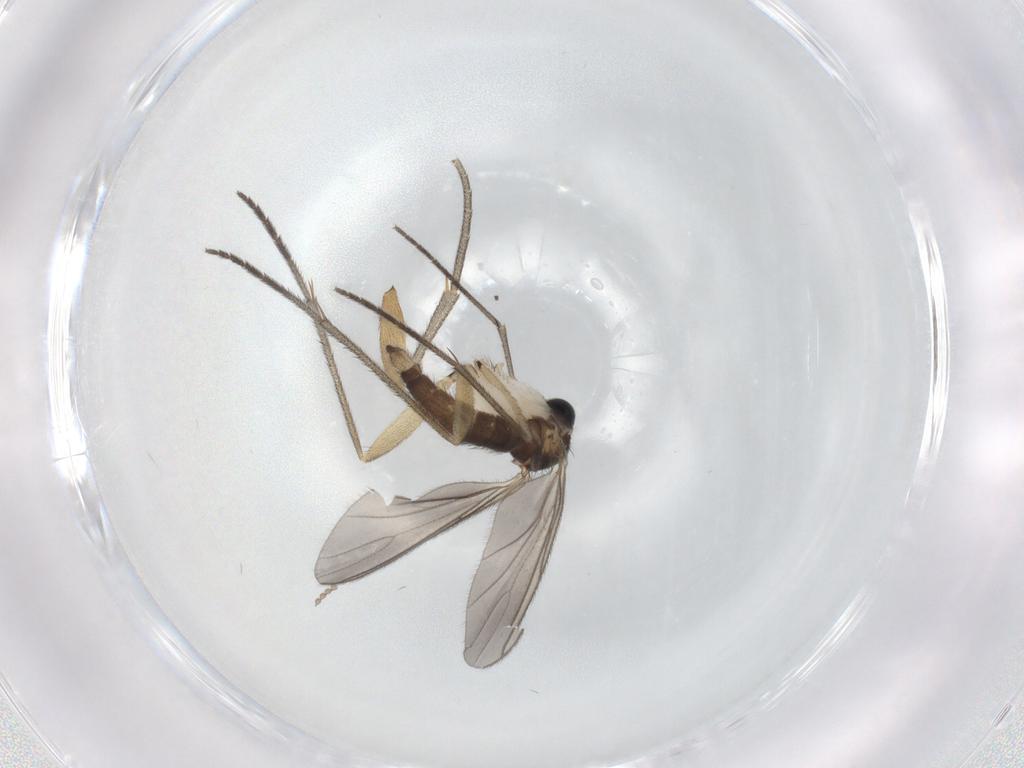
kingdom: Animalia
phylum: Arthropoda
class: Insecta
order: Diptera
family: Sciaridae
